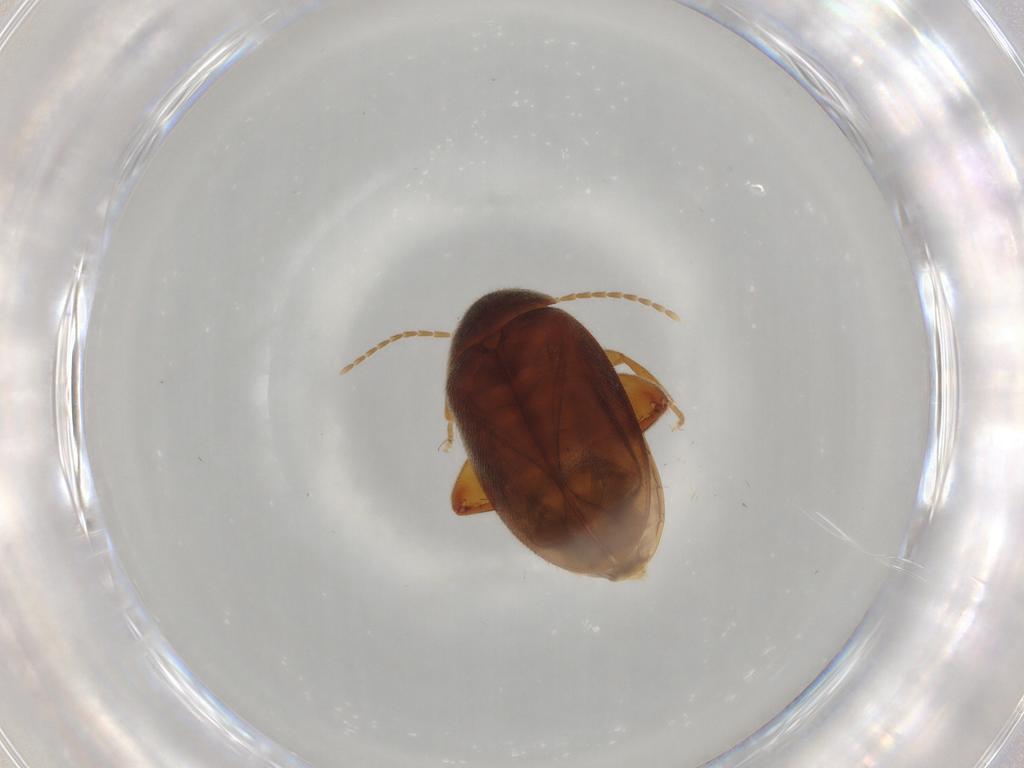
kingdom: Animalia
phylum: Arthropoda
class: Insecta
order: Coleoptera
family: Scirtidae
